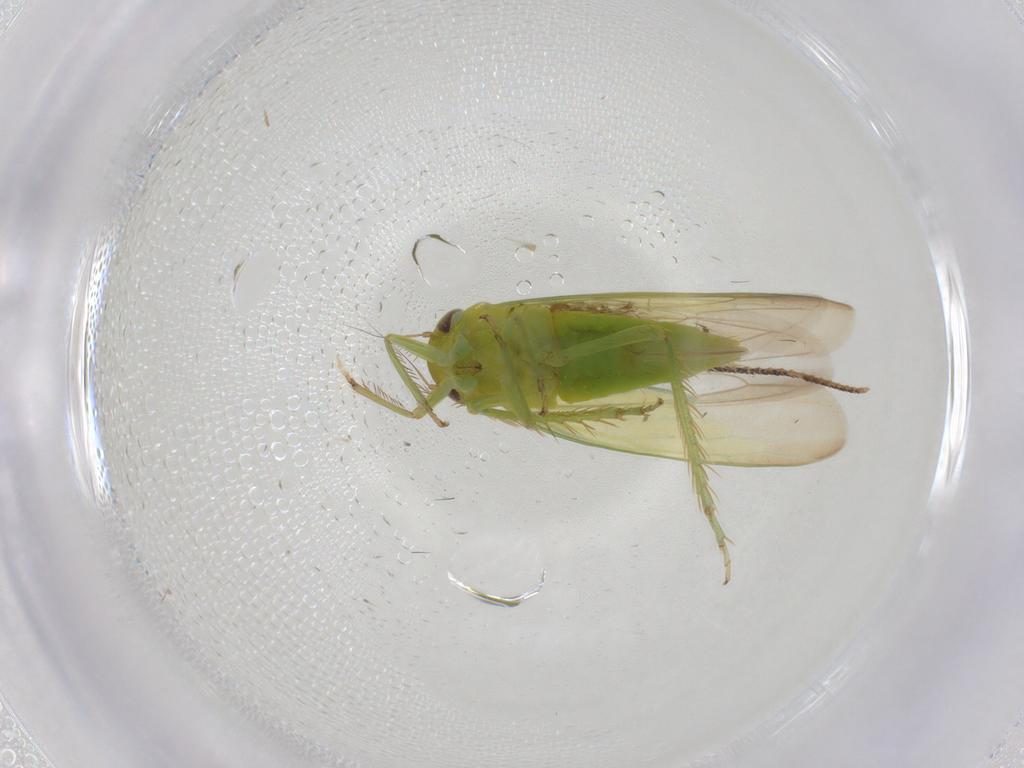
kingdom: Animalia
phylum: Arthropoda
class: Insecta
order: Hemiptera
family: Cicadellidae
